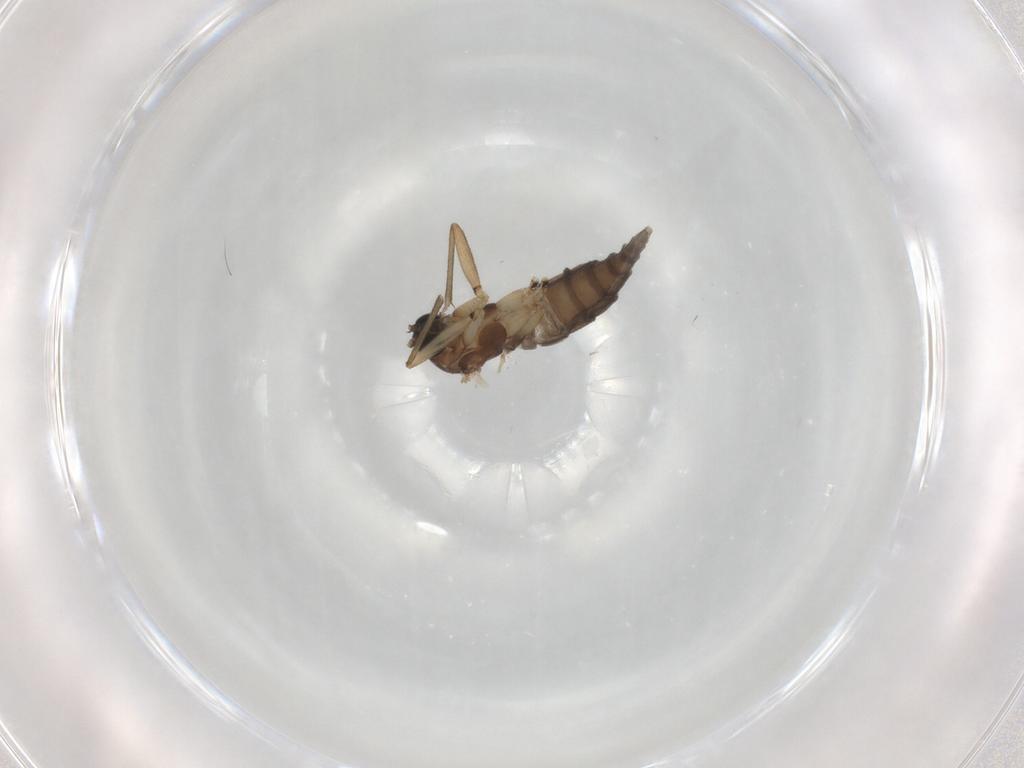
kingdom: Animalia
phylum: Arthropoda
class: Insecta
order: Diptera
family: Sciaridae
